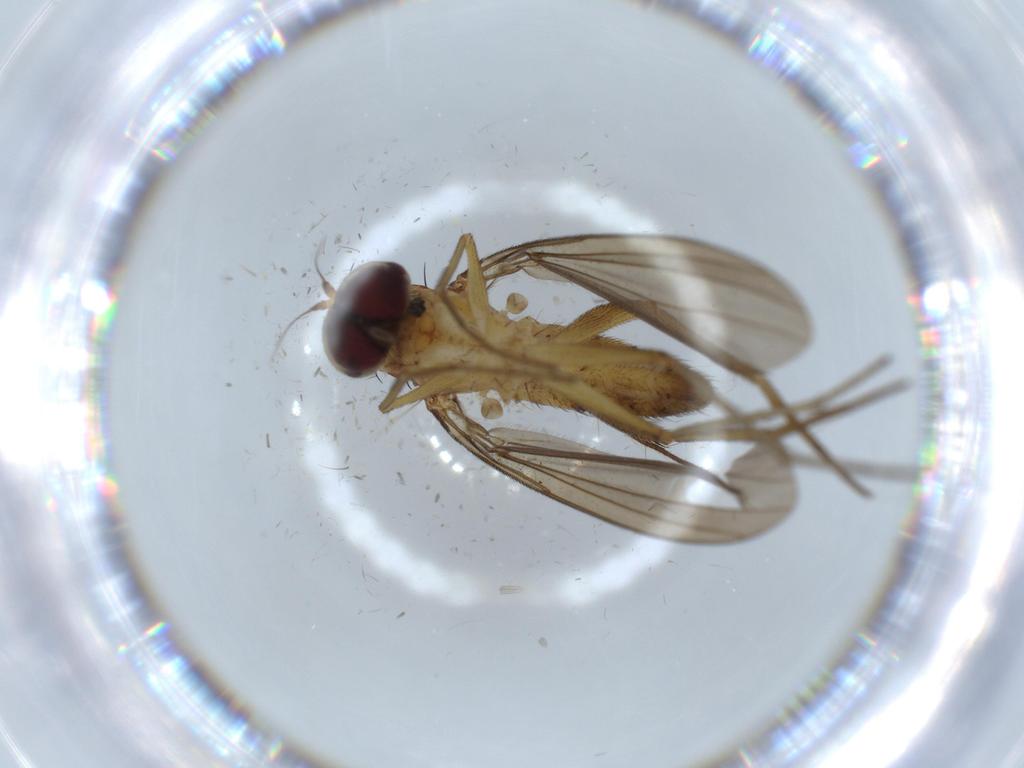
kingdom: Animalia
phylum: Arthropoda
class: Insecta
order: Diptera
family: Dolichopodidae
